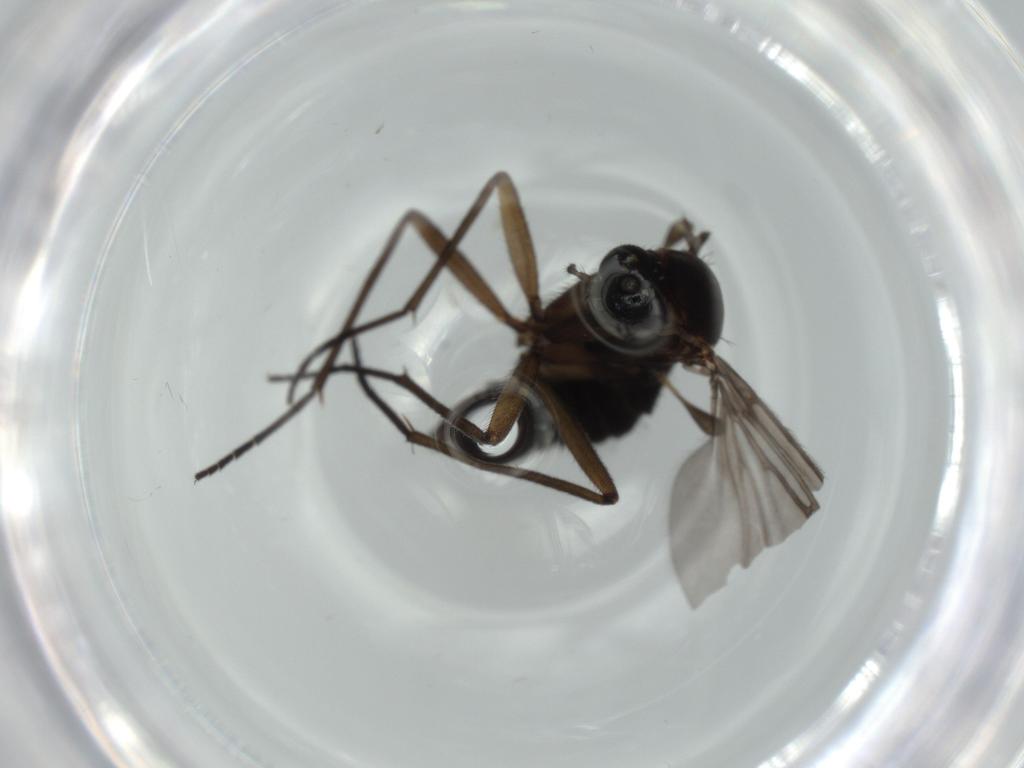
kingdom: Animalia
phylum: Arthropoda
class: Insecta
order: Diptera
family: Sciaridae
